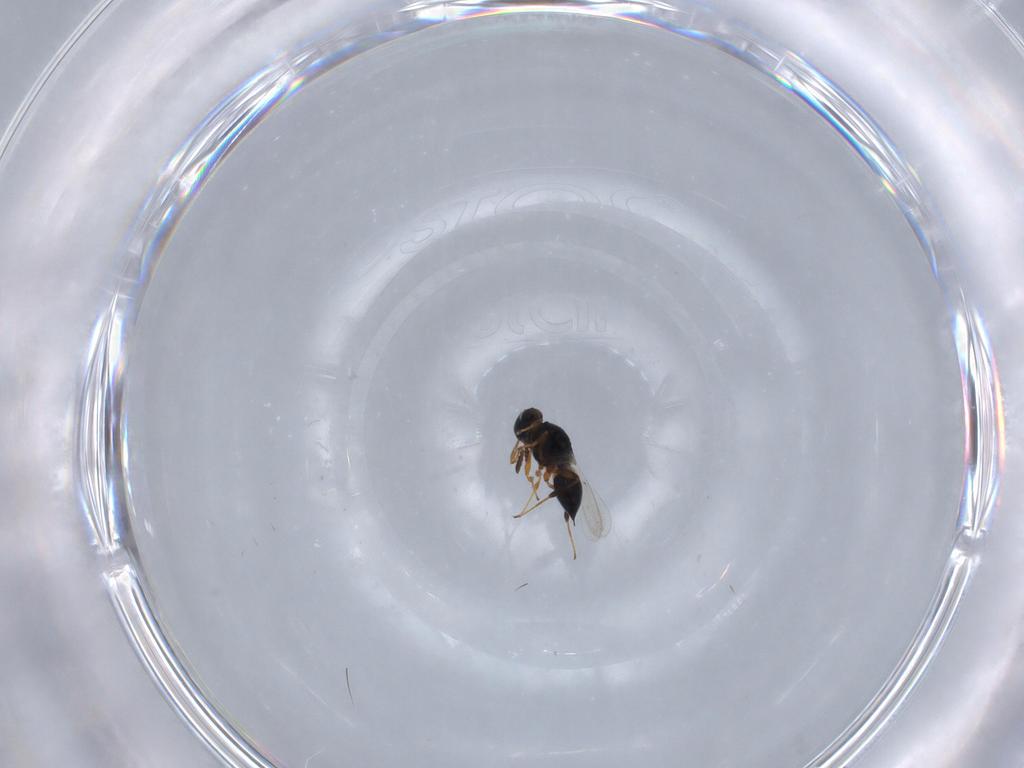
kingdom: Animalia
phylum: Arthropoda
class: Insecta
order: Hymenoptera
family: Platygastridae
